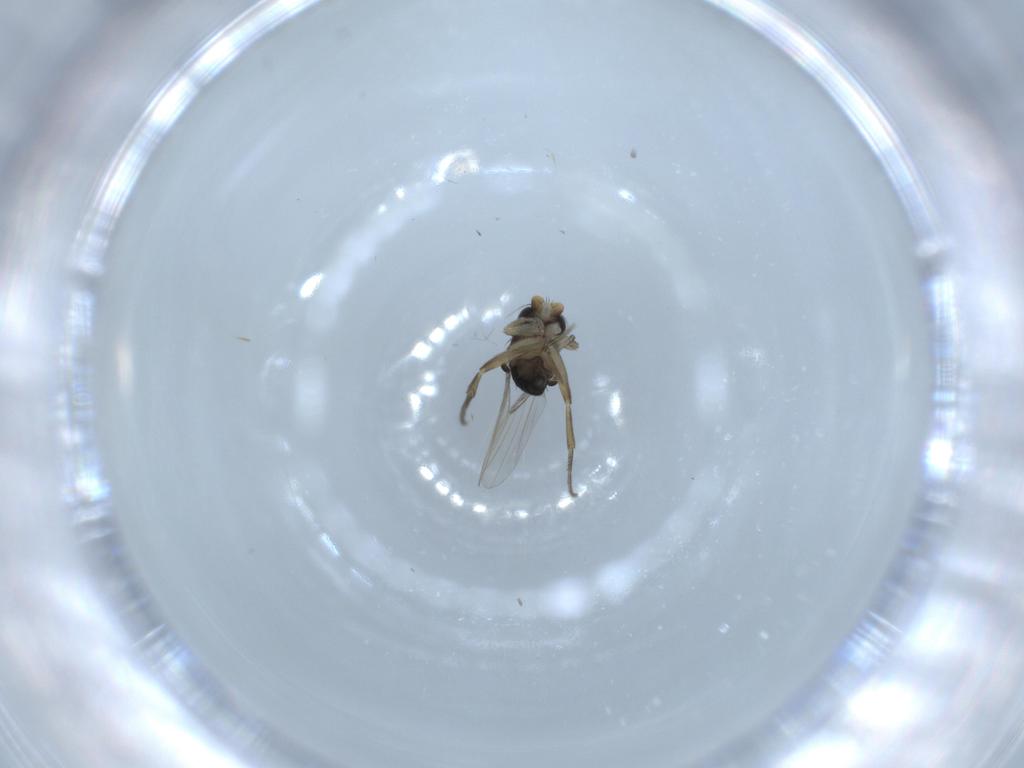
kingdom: Animalia
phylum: Arthropoda
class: Insecta
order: Diptera
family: Phoridae
